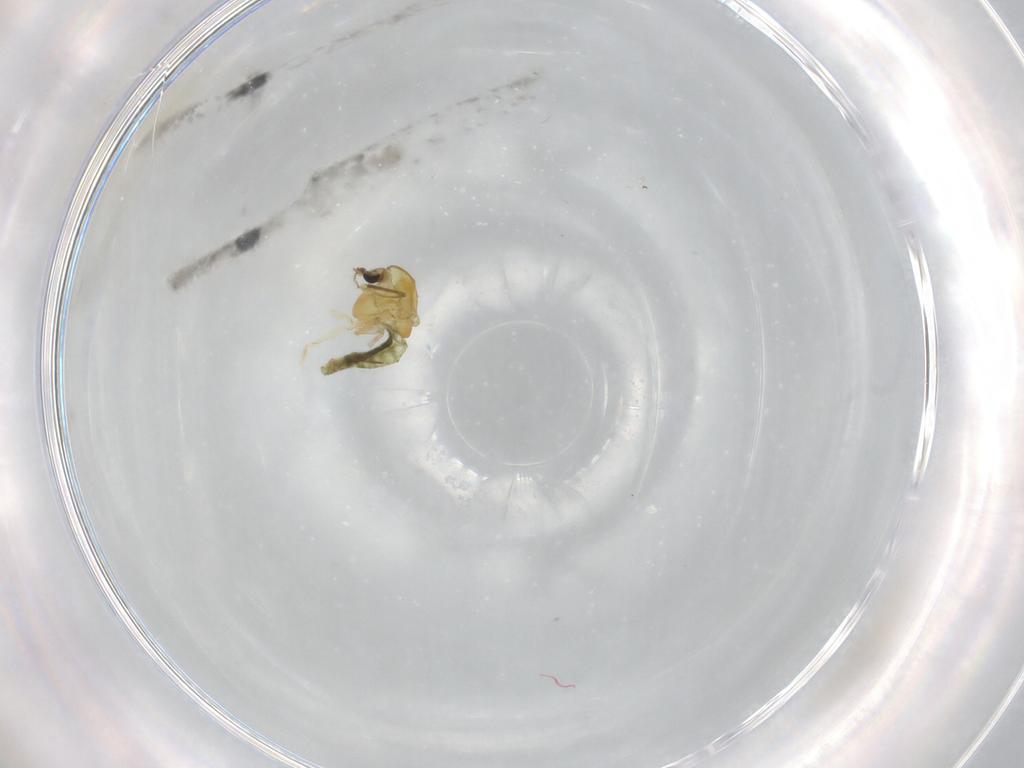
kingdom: Animalia
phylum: Arthropoda
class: Insecta
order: Diptera
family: Chironomidae
